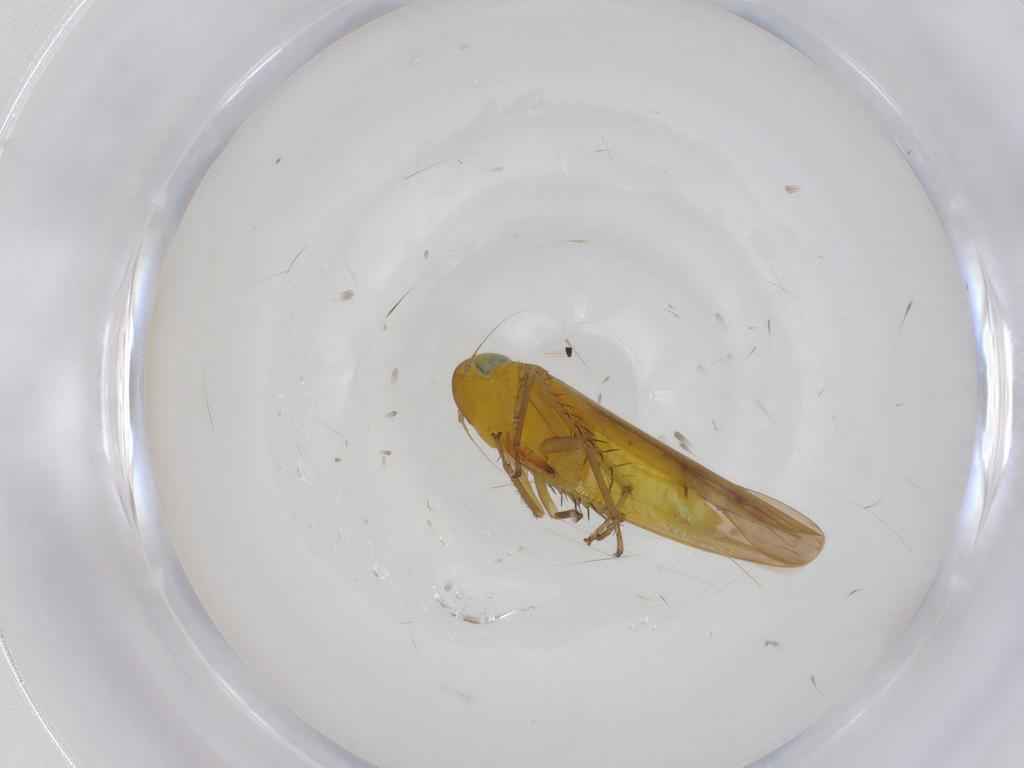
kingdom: Animalia
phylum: Arthropoda
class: Insecta
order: Hemiptera
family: Cicadellidae
